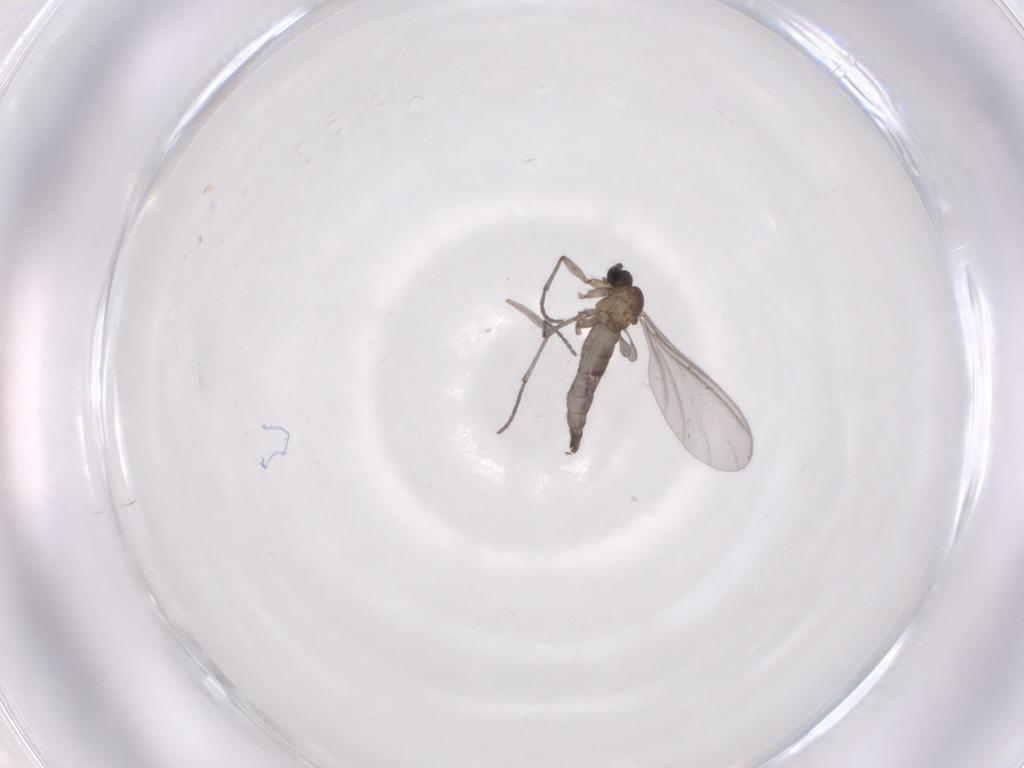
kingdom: Animalia
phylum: Arthropoda
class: Insecta
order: Diptera
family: Sciaridae
